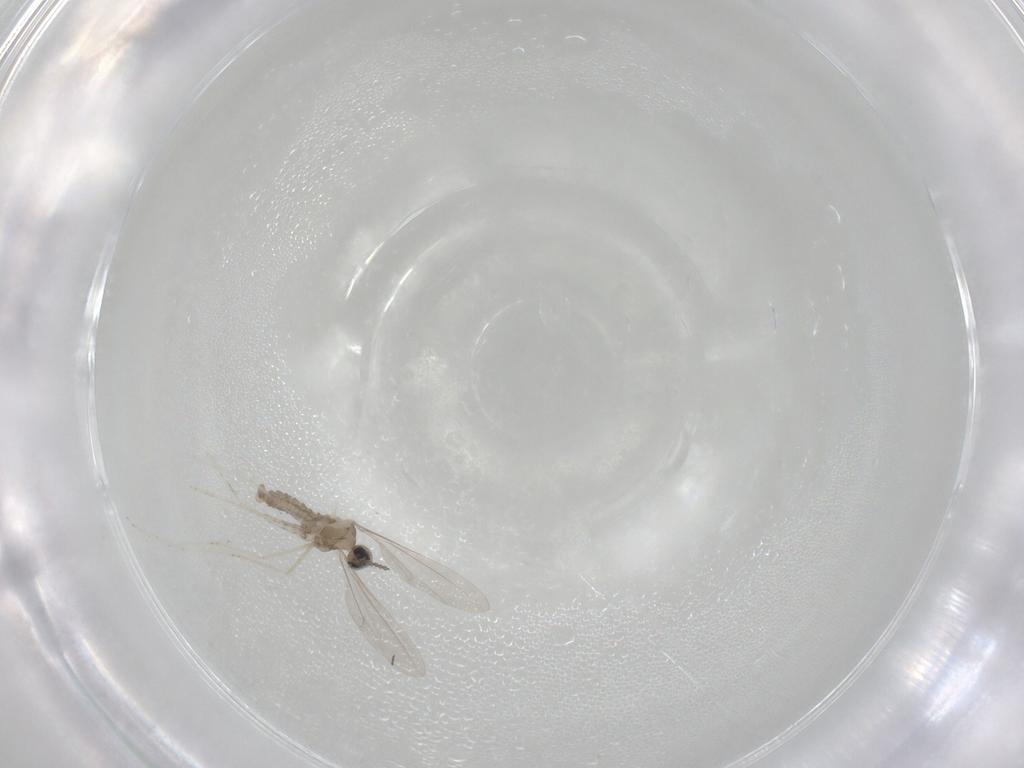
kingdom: Animalia
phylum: Arthropoda
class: Insecta
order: Diptera
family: Cecidomyiidae
